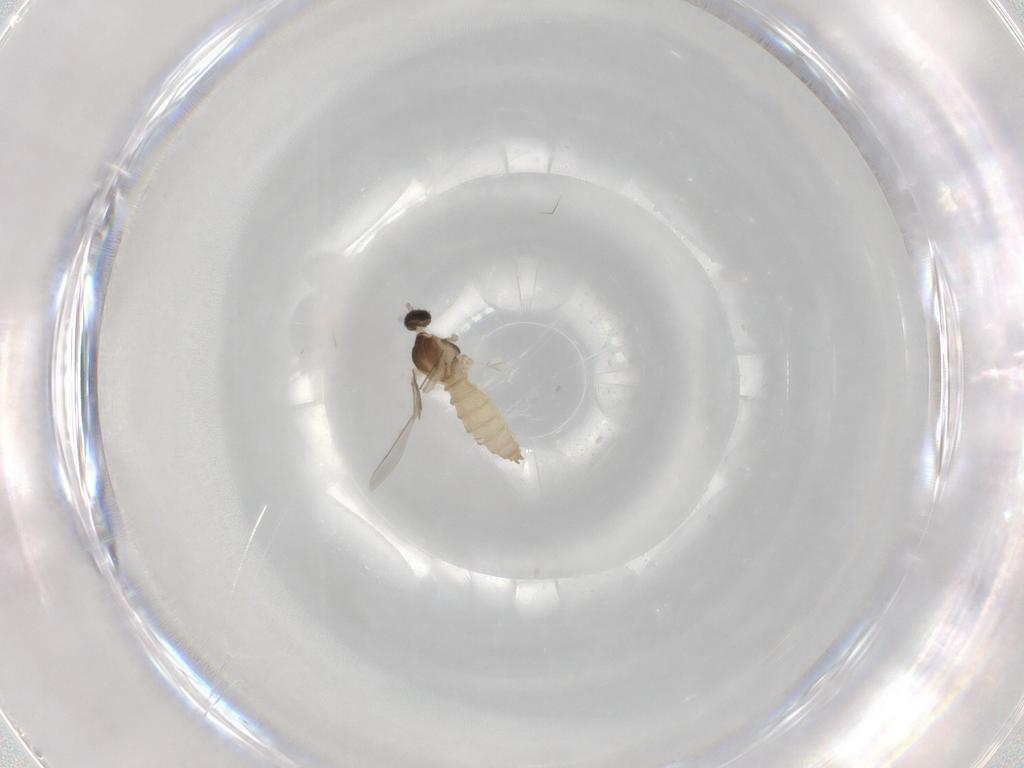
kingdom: Animalia
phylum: Arthropoda
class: Insecta
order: Diptera
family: Cecidomyiidae
